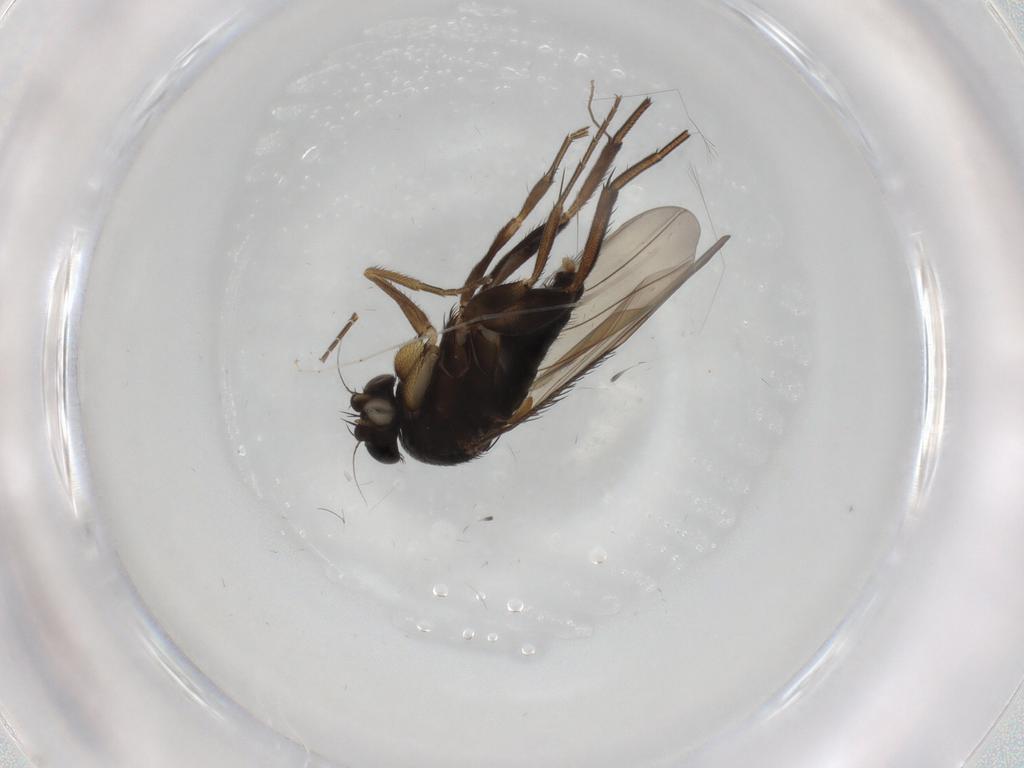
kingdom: Animalia
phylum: Arthropoda
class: Insecta
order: Diptera
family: Phoridae
